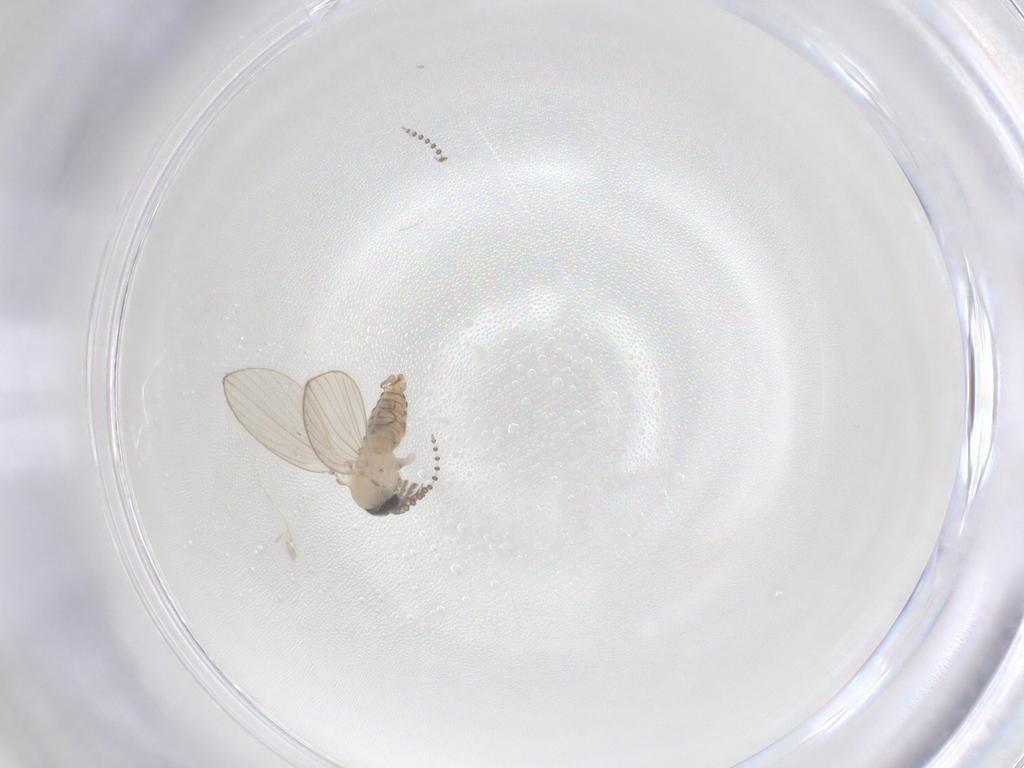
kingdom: Animalia
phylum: Arthropoda
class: Insecta
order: Diptera
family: Psychodidae
